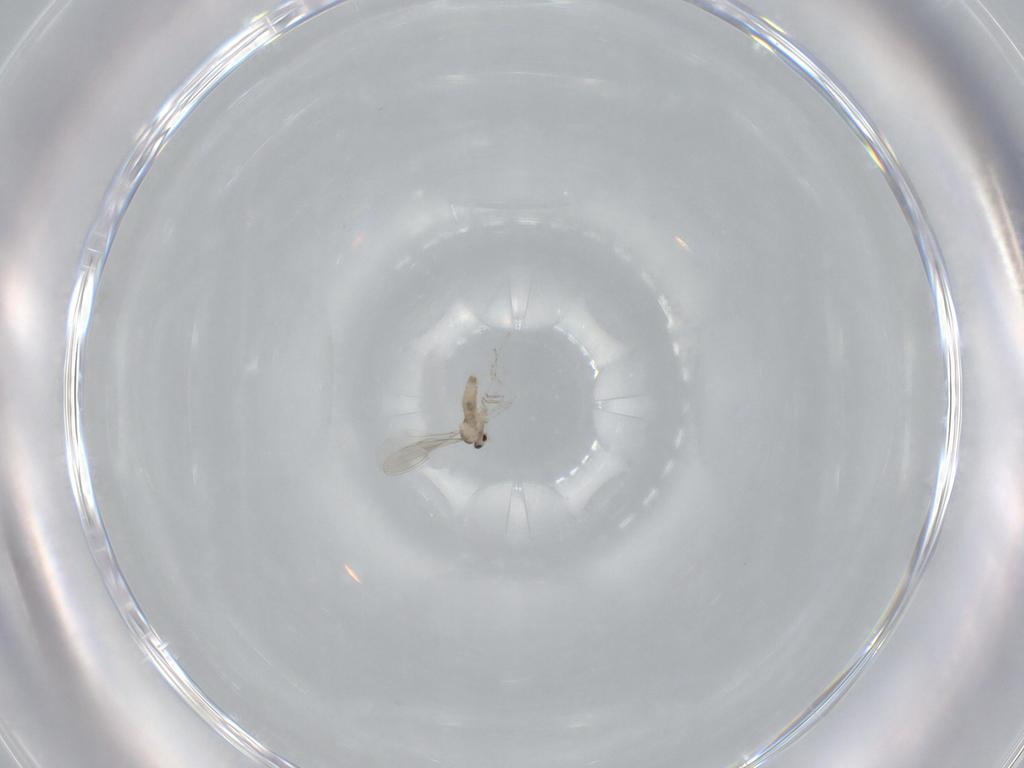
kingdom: Animalia
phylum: Arthropoda
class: Insecta
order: Diptera
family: Cecidomyiidae
